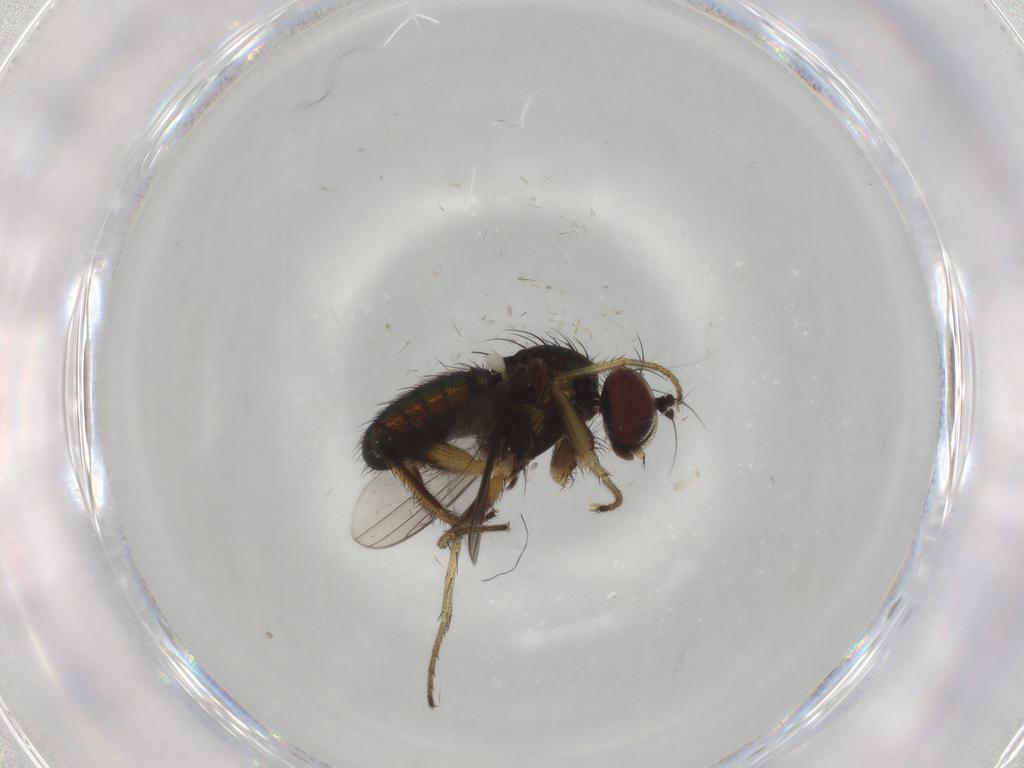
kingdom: Animalia
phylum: Arthropoda
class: Insecta
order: Diptera
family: Dolichopodidae
